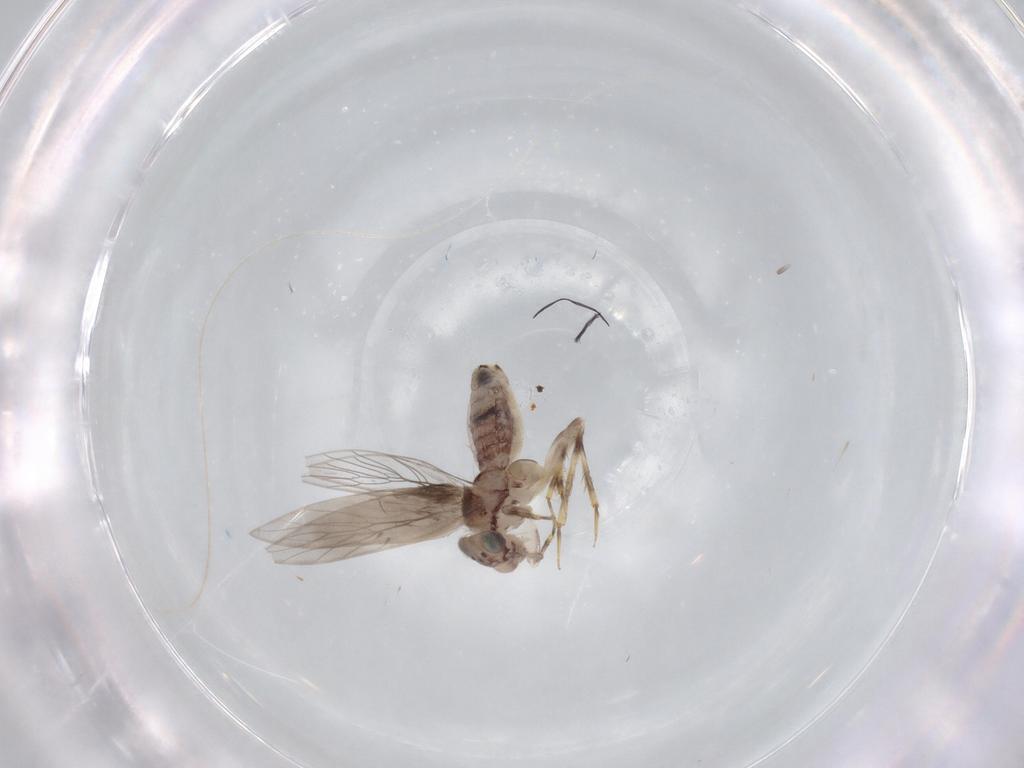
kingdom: Animalia
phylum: Arthropoda
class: Insecta
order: Psocodea
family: Lepidopsocidae
